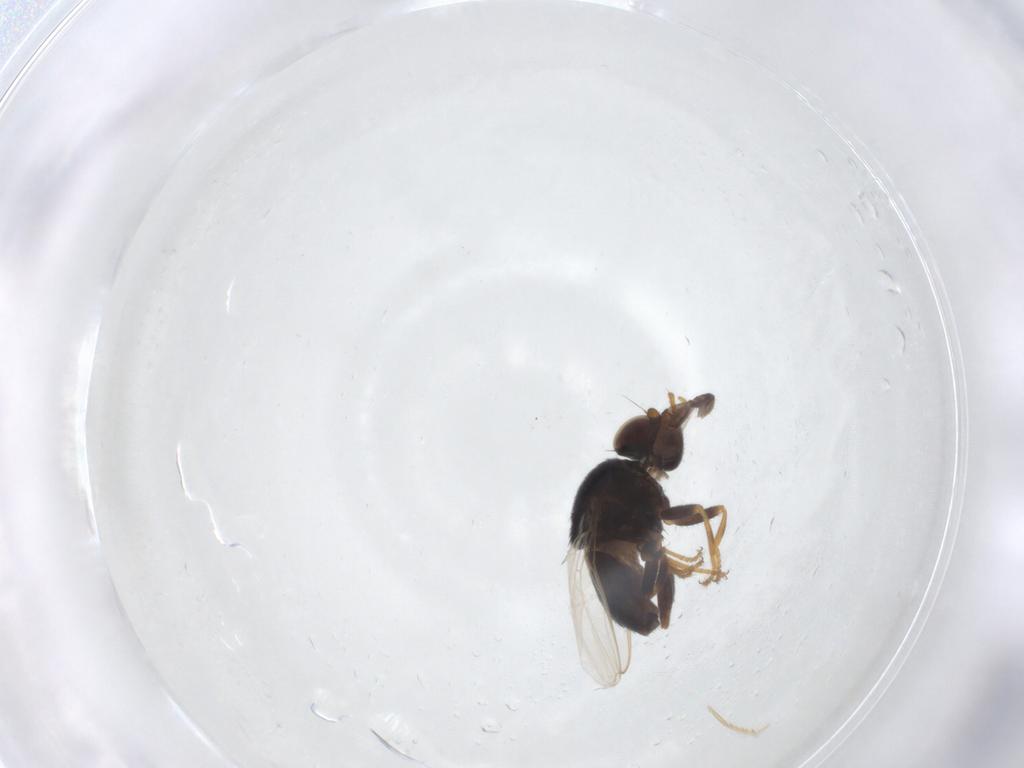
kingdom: Animalia
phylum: Arthropoda
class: Insecta
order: Diptera
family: Chloropidae
